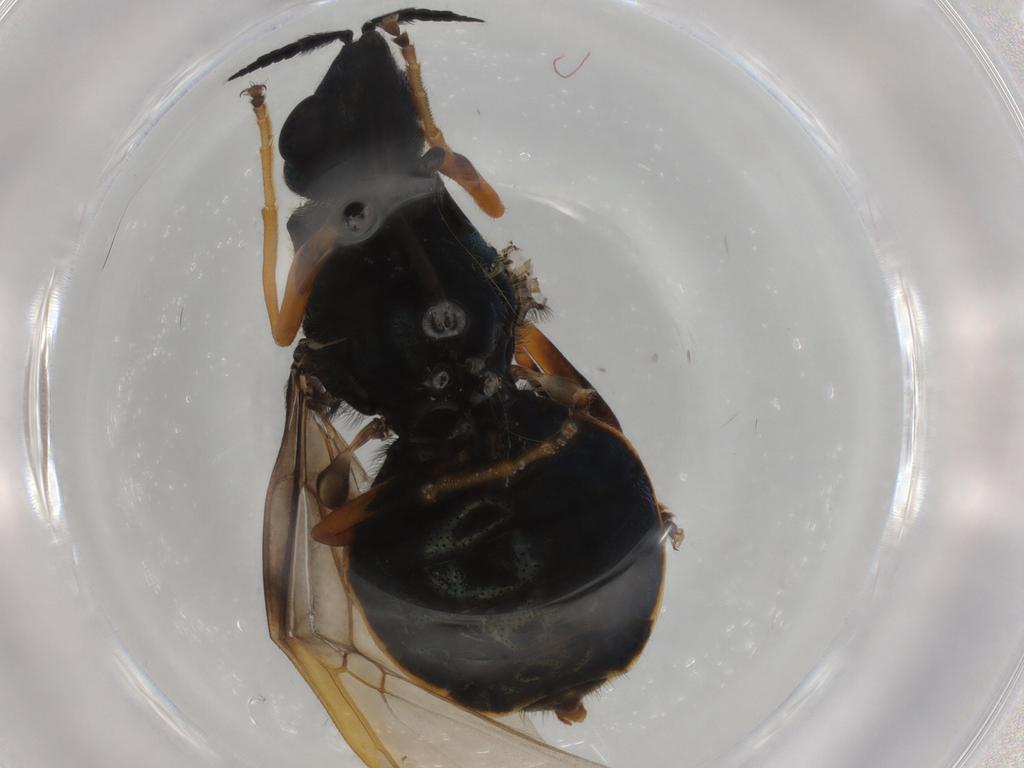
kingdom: Animalia
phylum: Arthropoda
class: Insecta
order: Diptera
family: Stratiomyidae
